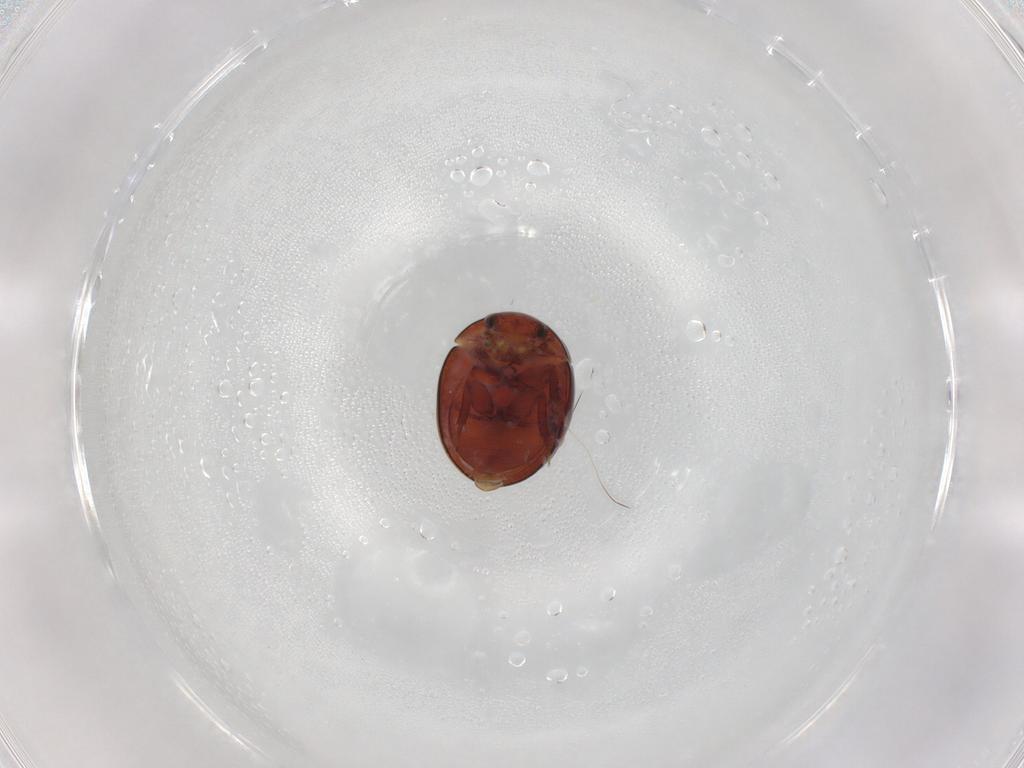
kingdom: Animalia
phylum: Arthropoda
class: Insecta
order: Coleoptera
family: Hydrophilidae
